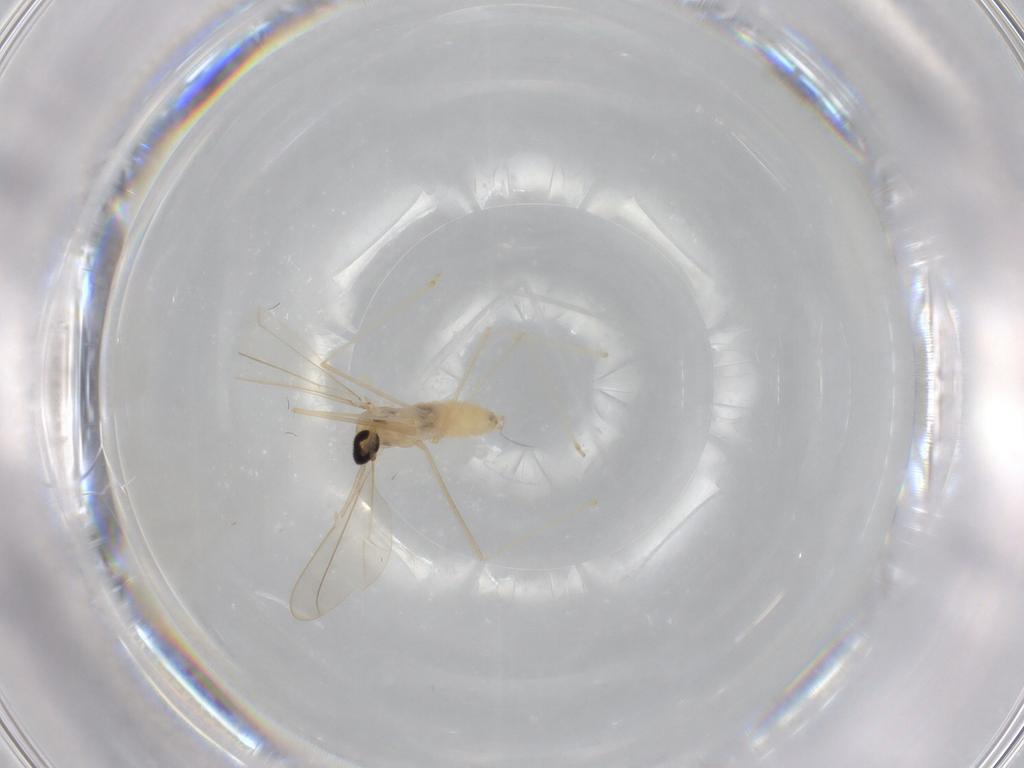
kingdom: Animalia
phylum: Arthropoda
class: Insecta
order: Diptera
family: Cecidomyiidae
